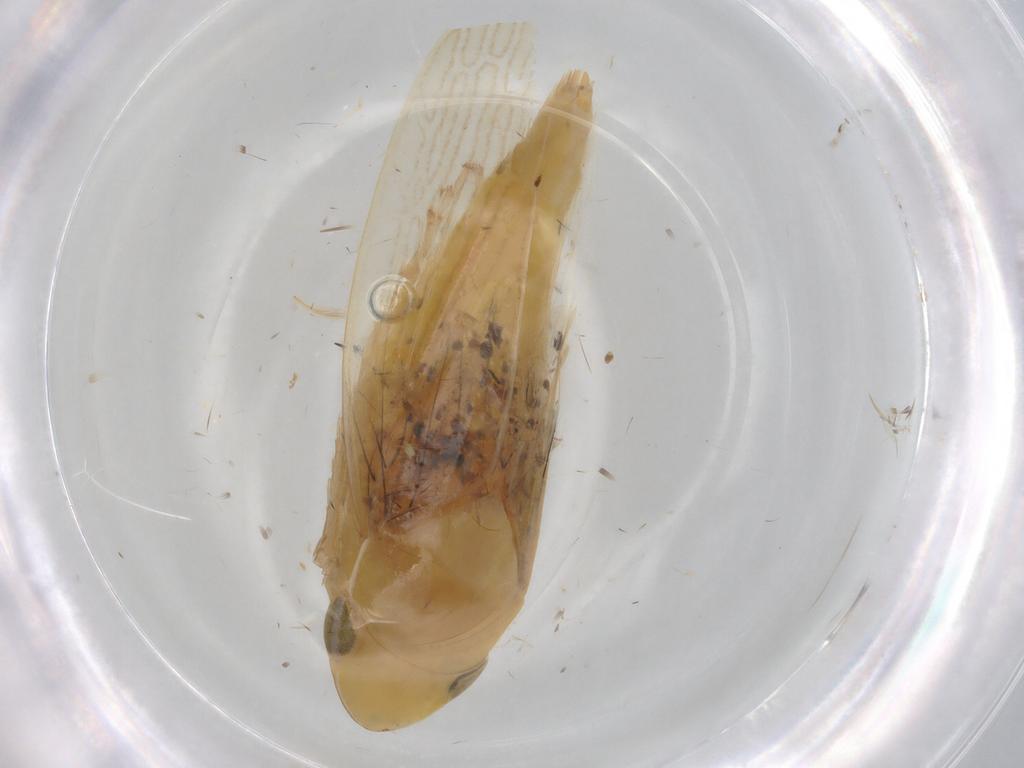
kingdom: Animalia
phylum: Arthropoda
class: Insecta
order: Hemiptera
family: Cicadellidae
